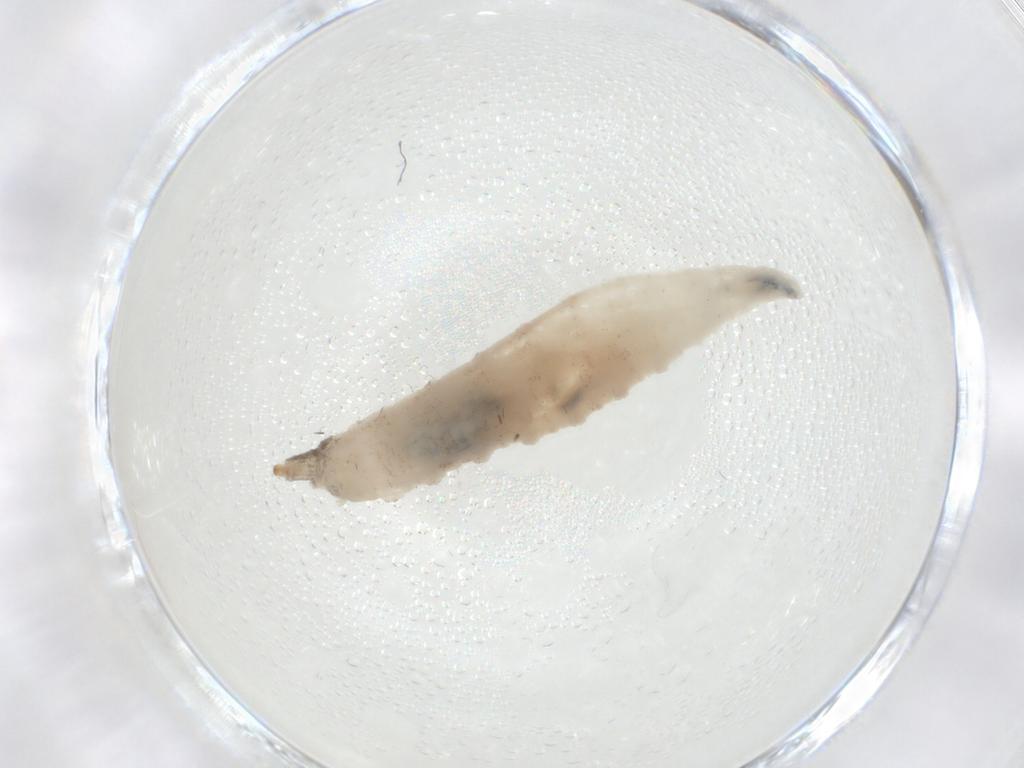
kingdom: Animalia
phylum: Arthropoda
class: Insecta
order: Diptera
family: Drosophilidae
